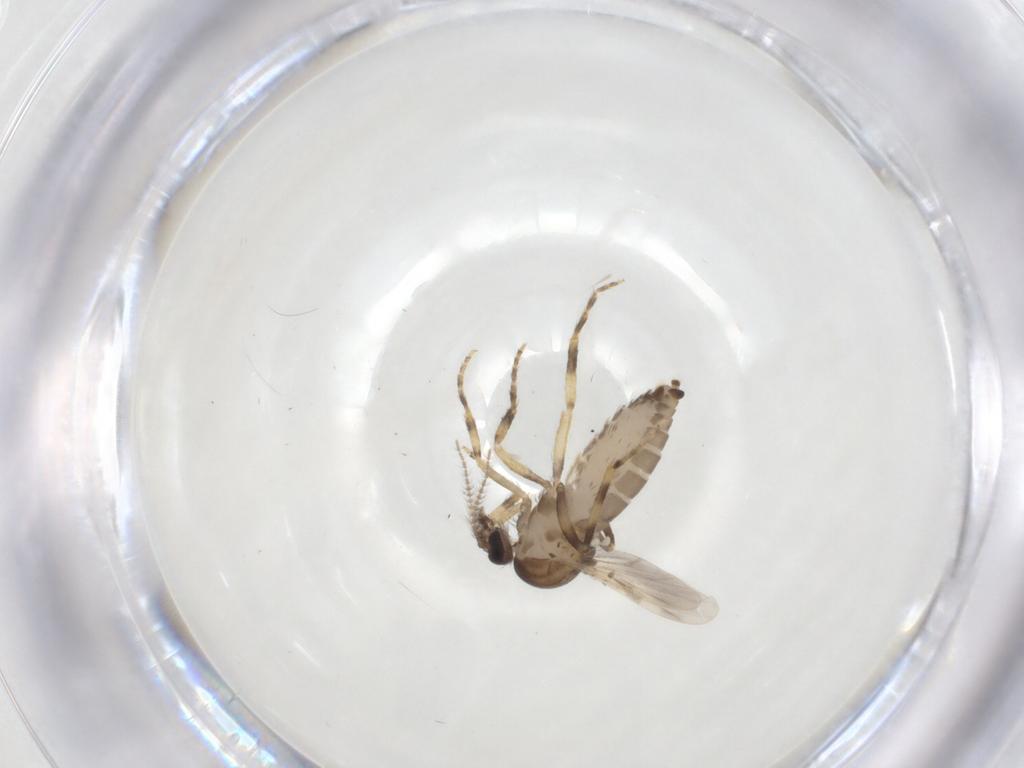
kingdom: Animalia
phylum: Arthropoda
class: Insecta
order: Diptera
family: Ceratopogonidae
